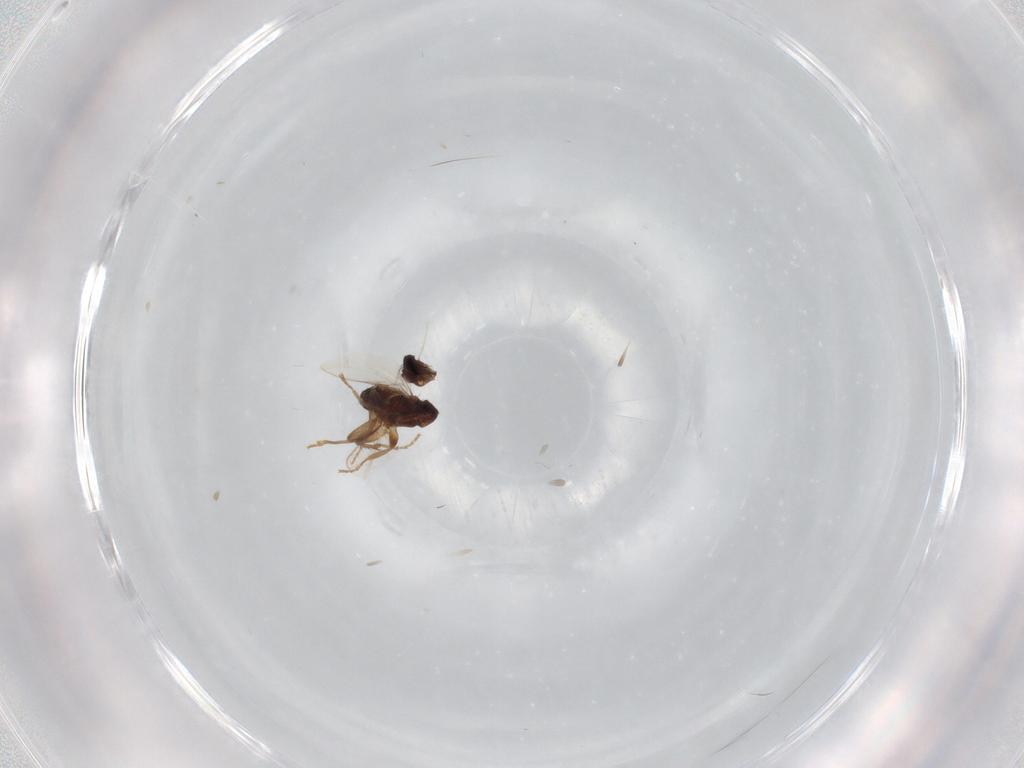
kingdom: Animalia
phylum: Arthropoda
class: Insecta
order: Diptera
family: Sphaeroceridae
